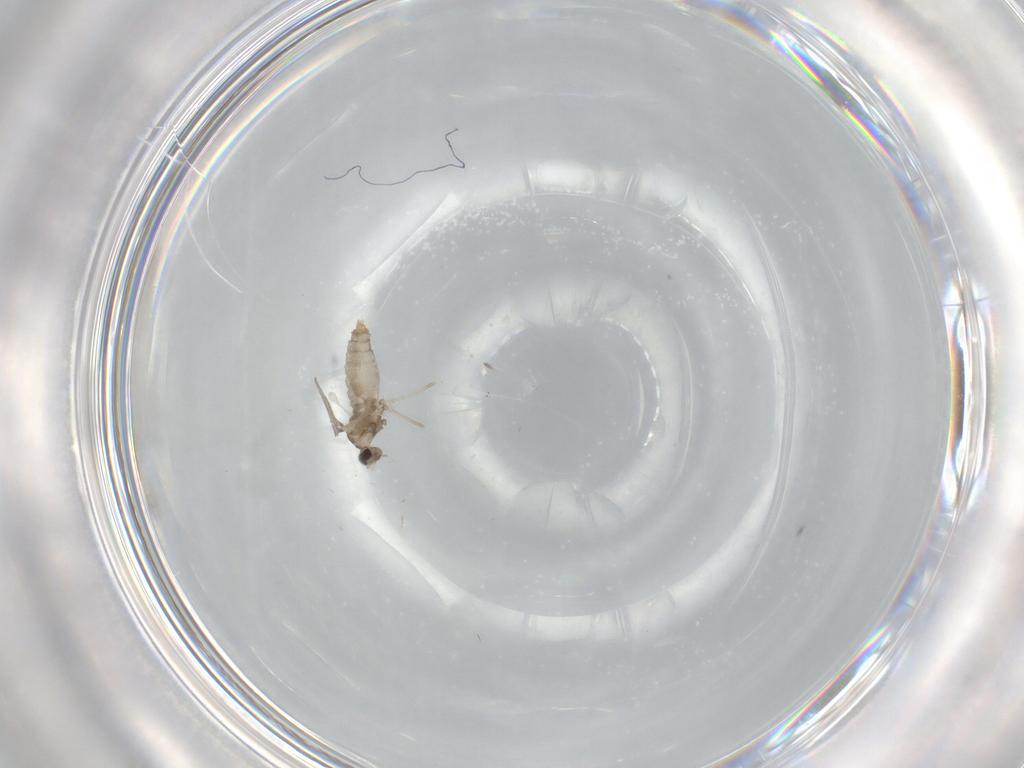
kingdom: Animalia
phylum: Arthropoda
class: Insecta
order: Diptera
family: Cecidomyiidae
